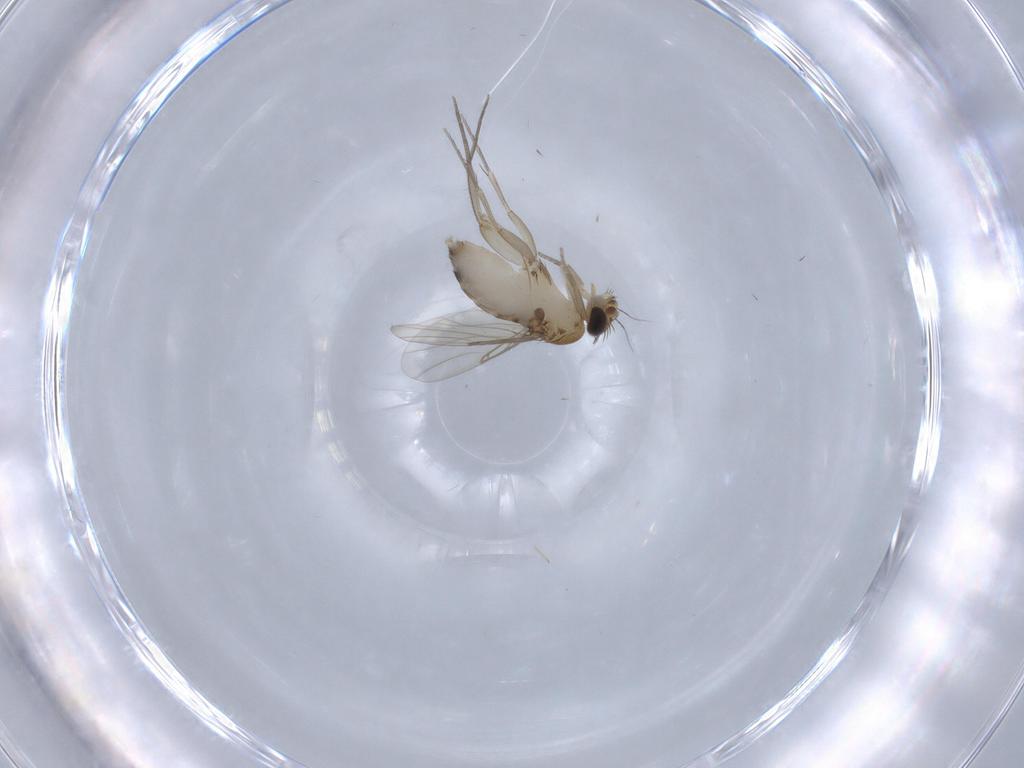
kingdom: Animalia
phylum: Arthropoda
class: Insecta
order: Diptera
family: Phoridae
